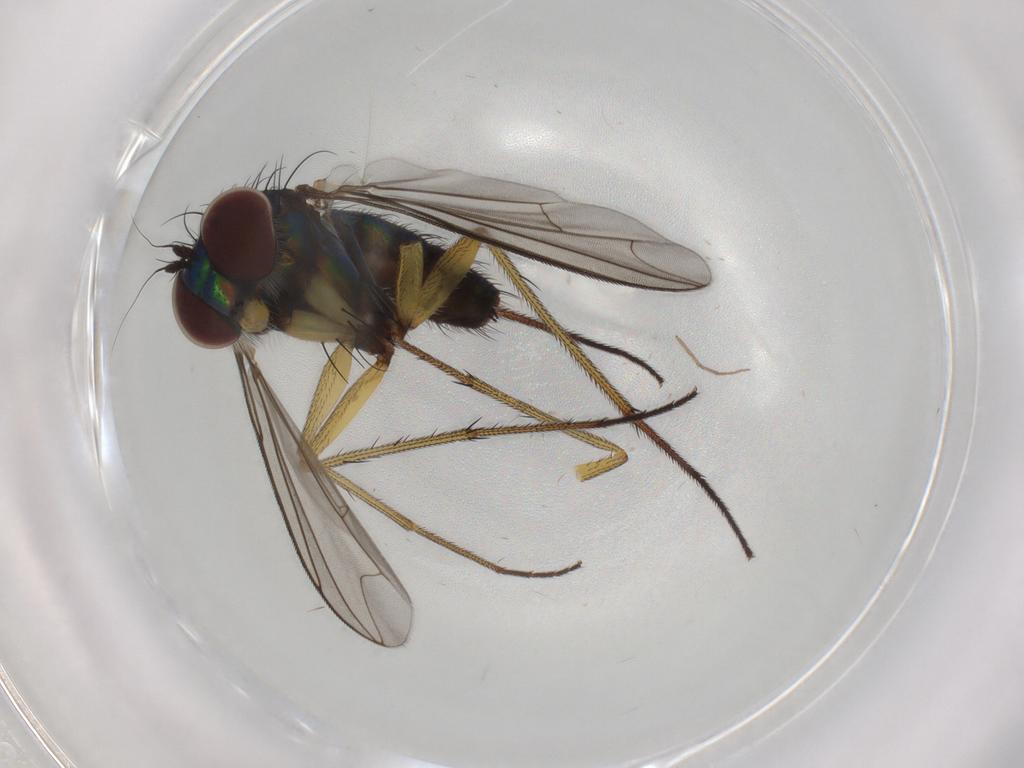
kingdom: Animalia
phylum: Arthropoda
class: Insecta
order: Diptera
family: Dolichopodidae
